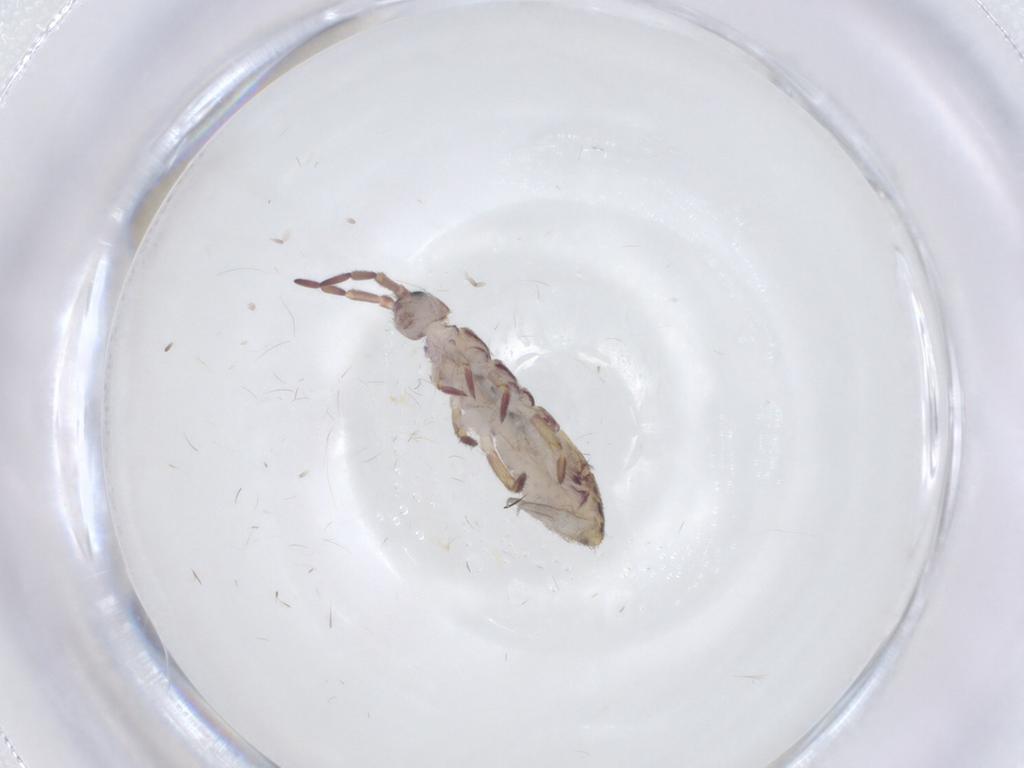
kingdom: Animalia
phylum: Arthropoda
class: Collembola
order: Entomobryomorpha
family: Isotomidae
